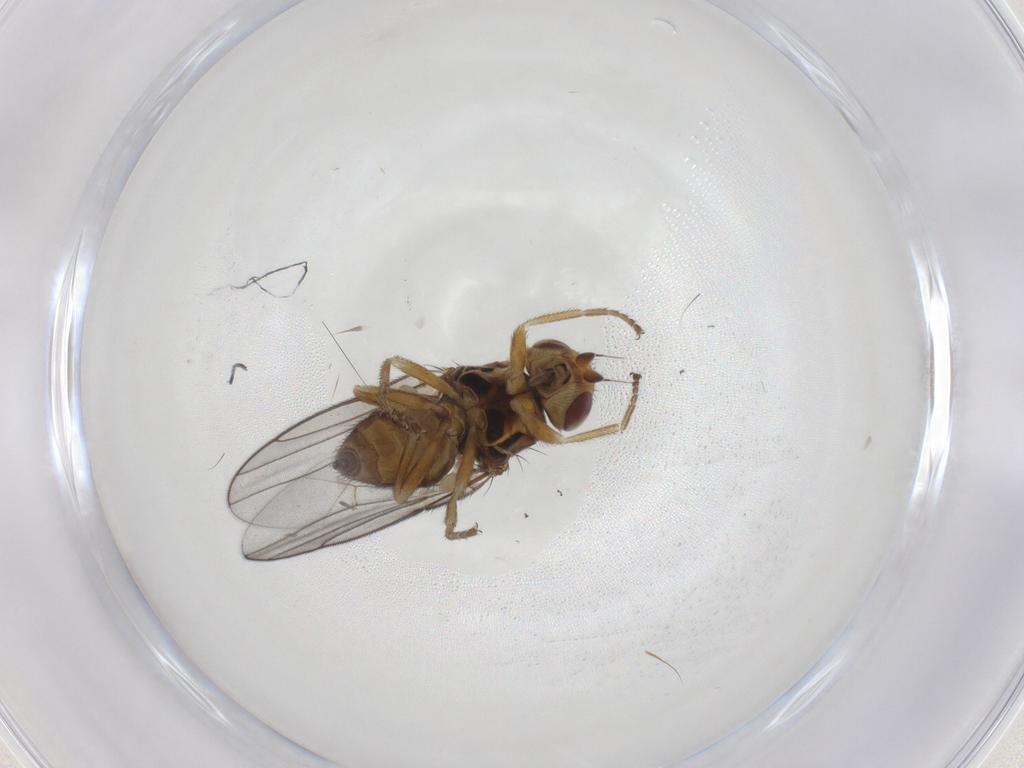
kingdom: Animalia
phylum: Arthropoda
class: Insecta
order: Diptera
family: Chloropidae
